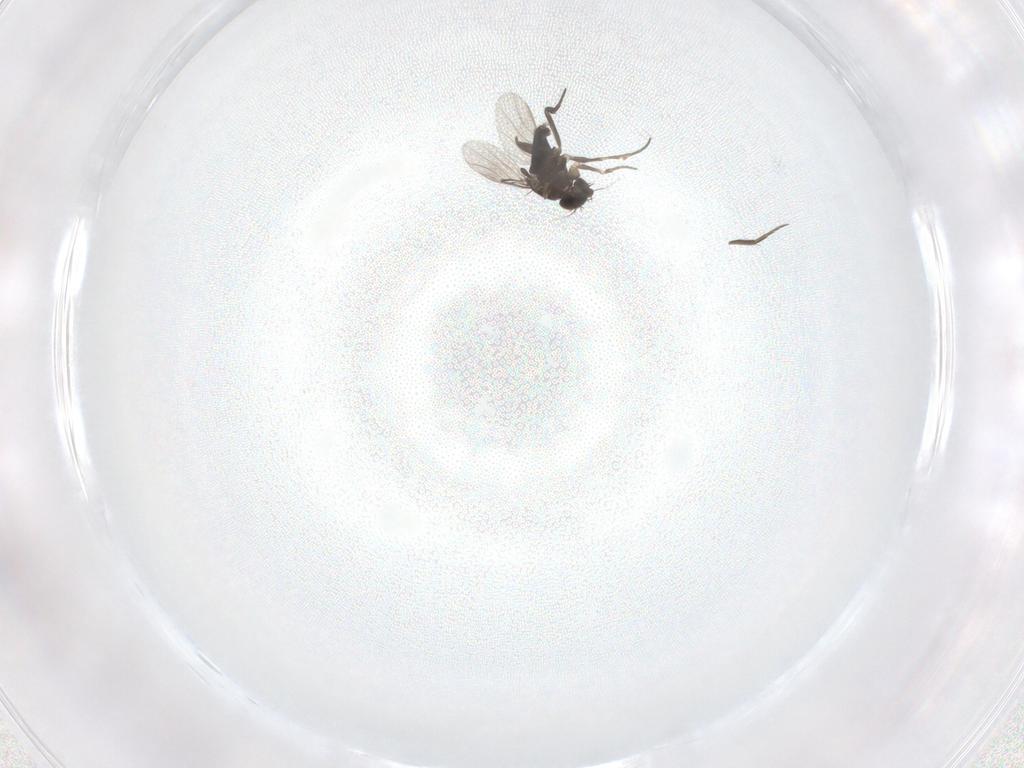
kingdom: Animalia
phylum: Arthropoda
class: Insecta
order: Diptera
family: Phoridae
